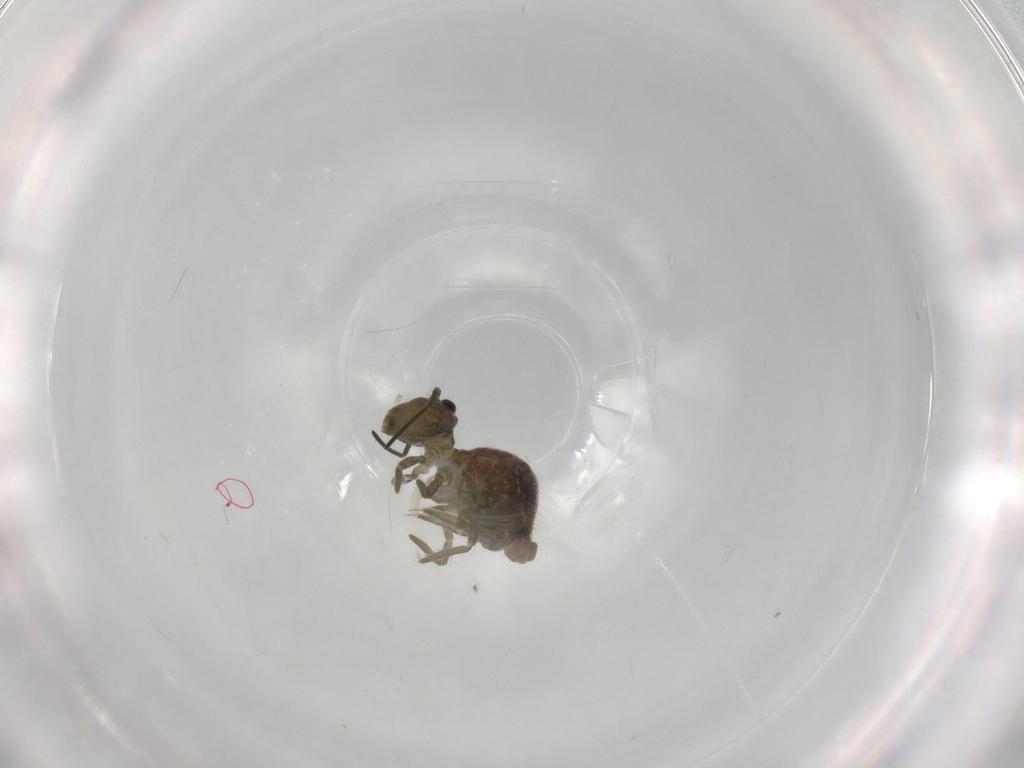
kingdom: Animalia
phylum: Arthropoda
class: Collembola
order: Symphypleona
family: Sminthuridae
